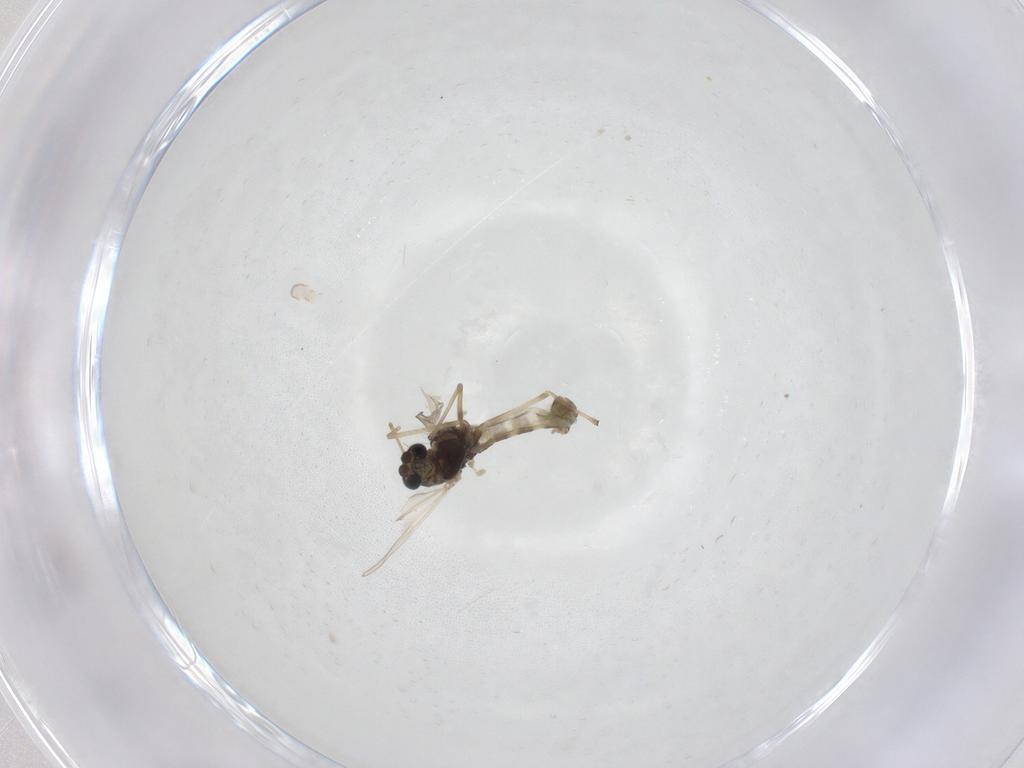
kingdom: Animalia
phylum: Arthropoda
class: Insecta
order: Diptera
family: Chironomidae
